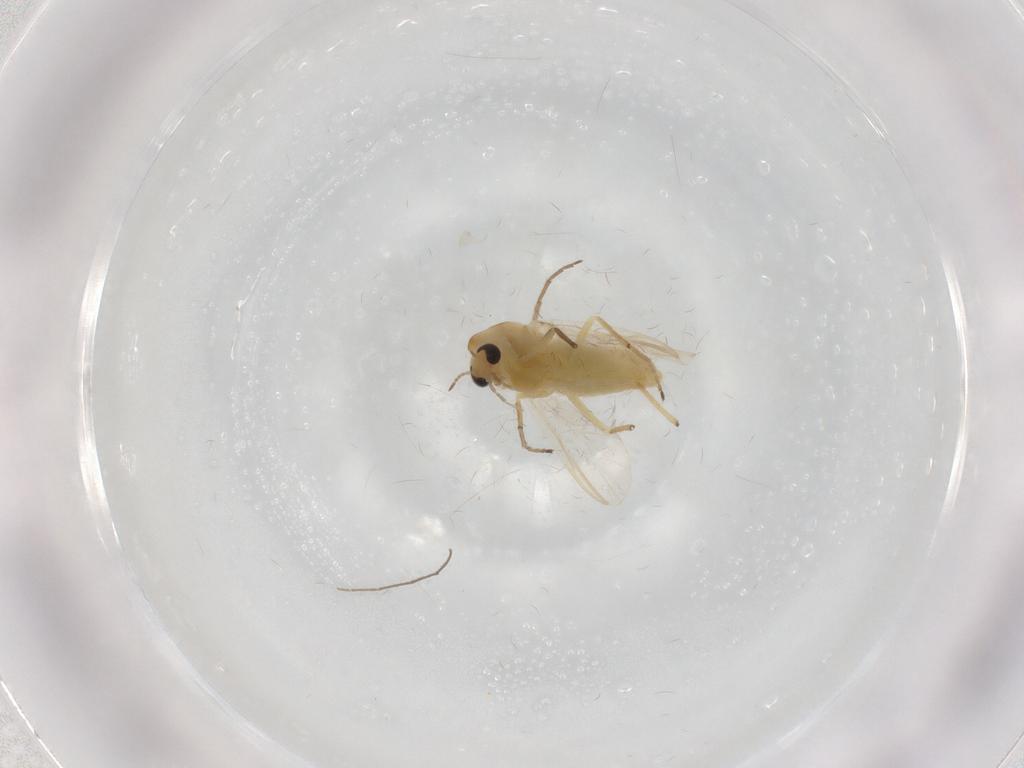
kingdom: Animalia
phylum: Arthropoda
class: Insecta
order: Diptera
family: Chironomidae
